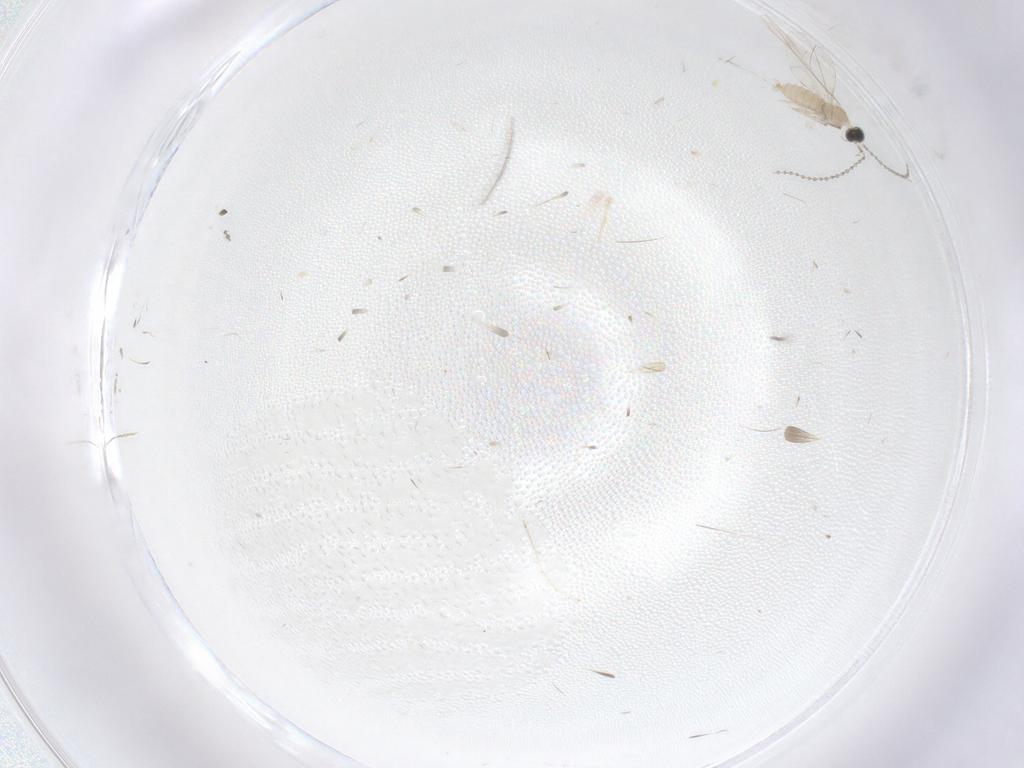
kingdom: Animalia
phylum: Arthropoda
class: Insecta
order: Diptera
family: Cecidomyiidae
